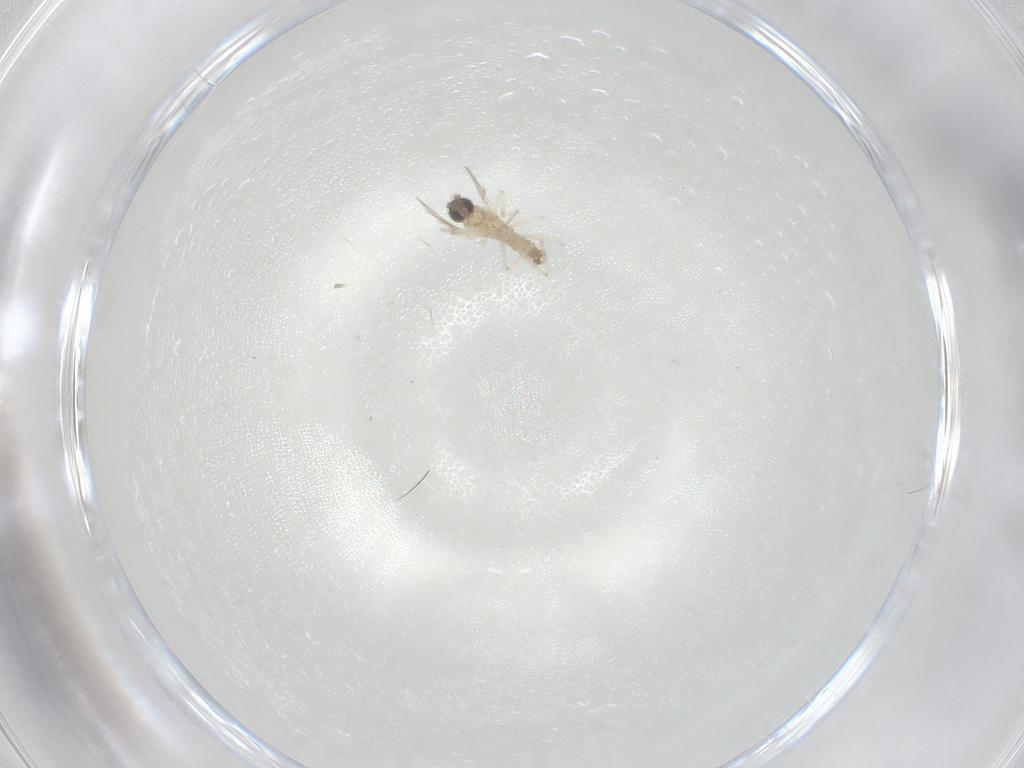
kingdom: Animalia
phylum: Arthropoda
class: Insecta
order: Diptera
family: Cecidomyiidae
